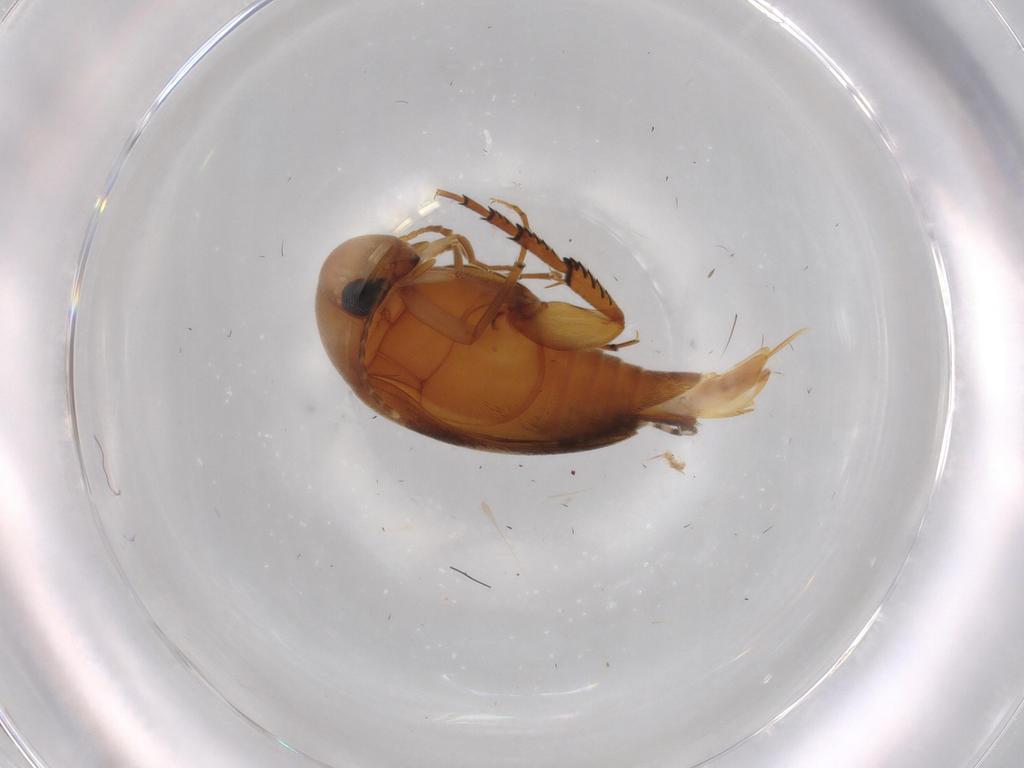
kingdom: Animalia
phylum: Arthropoda
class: Insecta
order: Coleoptera
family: Mordellidae
